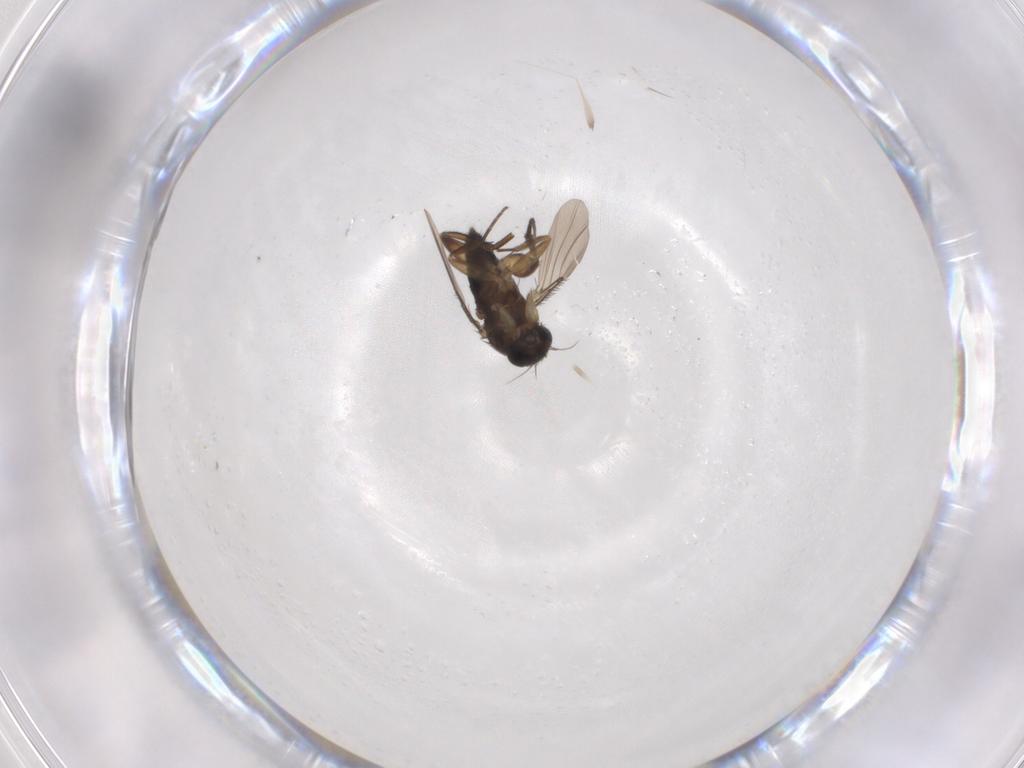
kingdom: Animalia
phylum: Arthropoda
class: Insecta
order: Diptera
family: Phoridae
